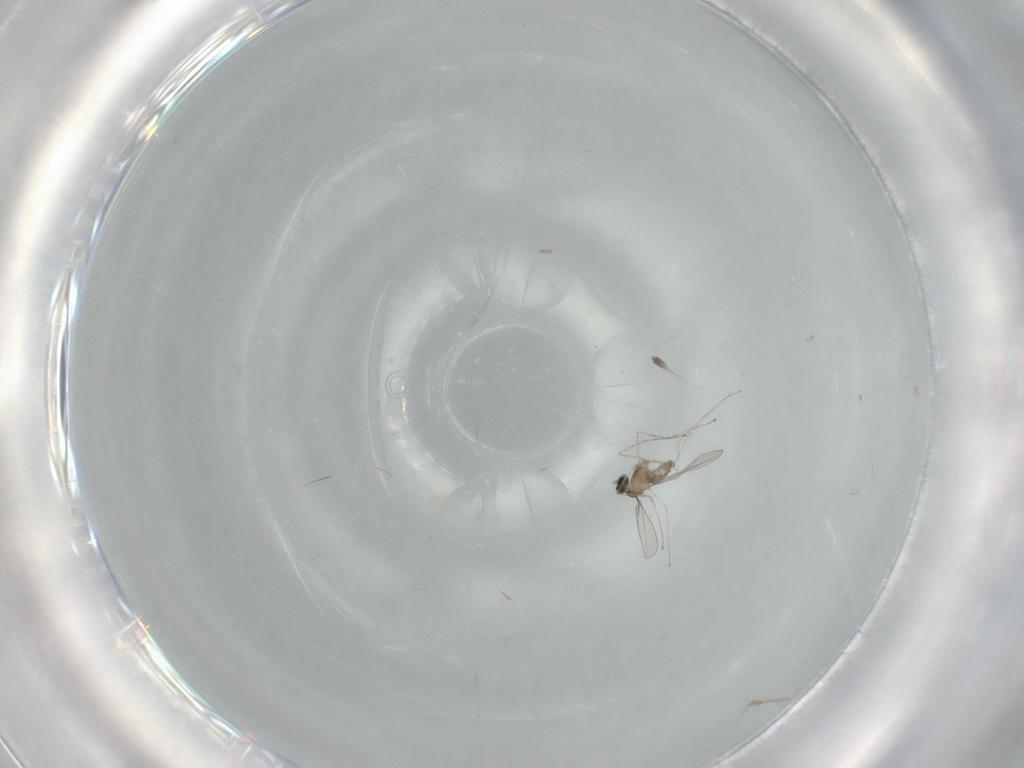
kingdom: Animalia
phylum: Arthropoda
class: Insecta
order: Diptera
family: Cecidomyiidae
